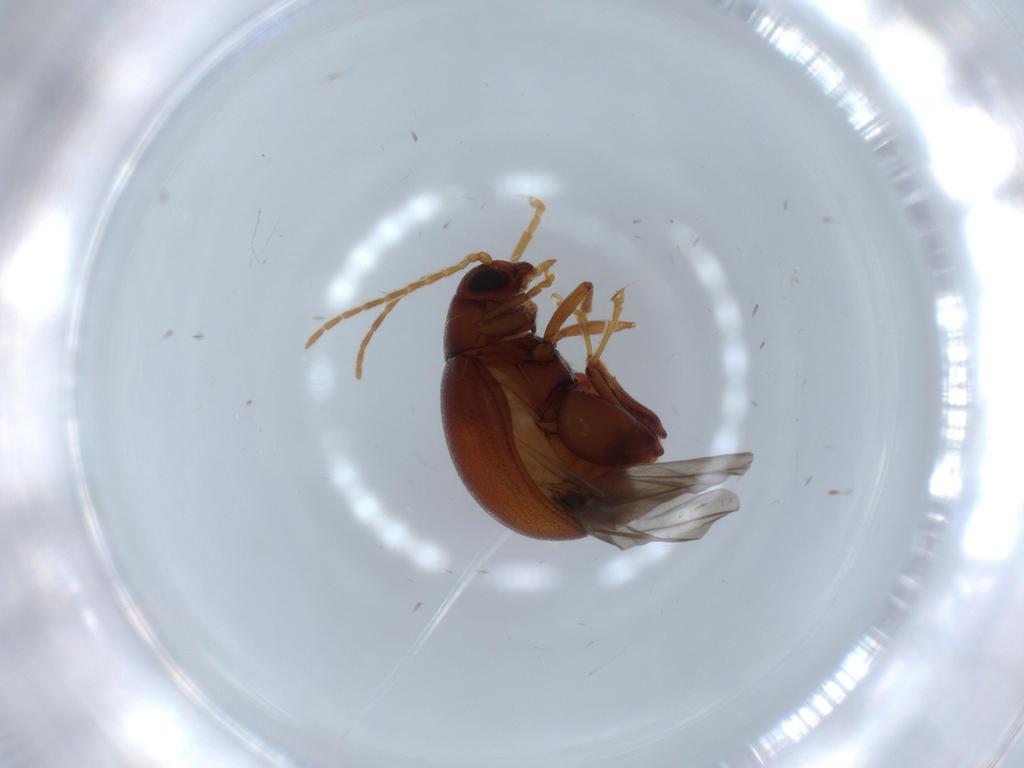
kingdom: Animalia
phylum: Arthropoda
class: Insecta
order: Coleoptera
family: Chrysomelidae
